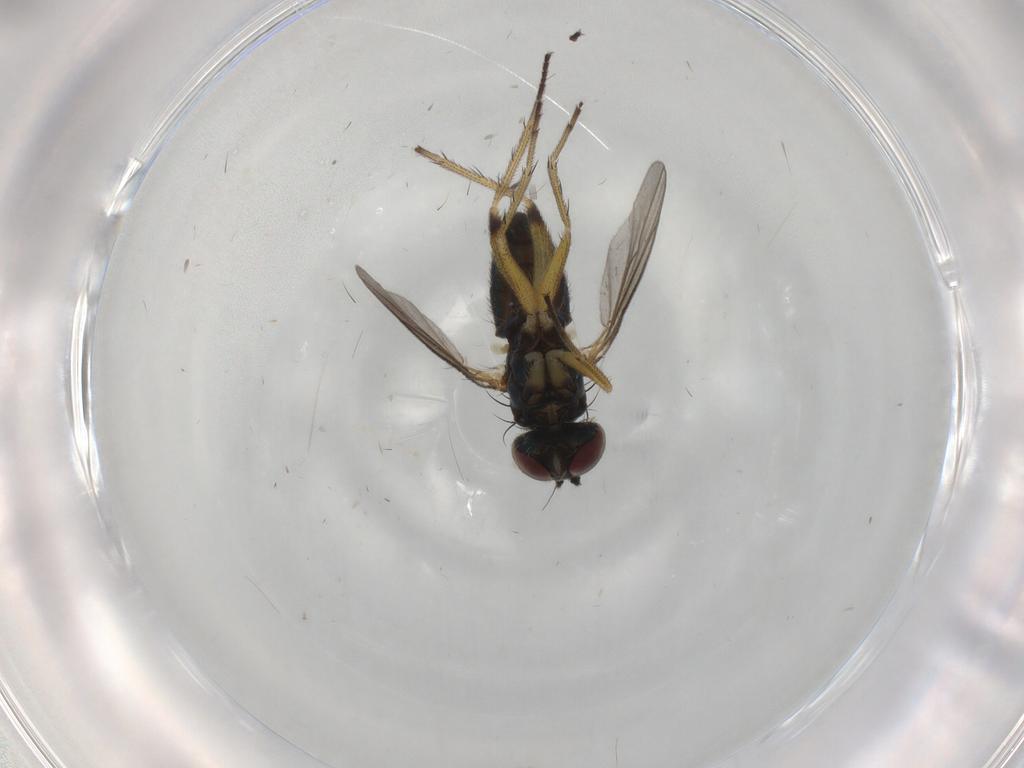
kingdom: Animalia
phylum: Arthropoda
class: Insecta
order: Diptera
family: Dolichopodidae
